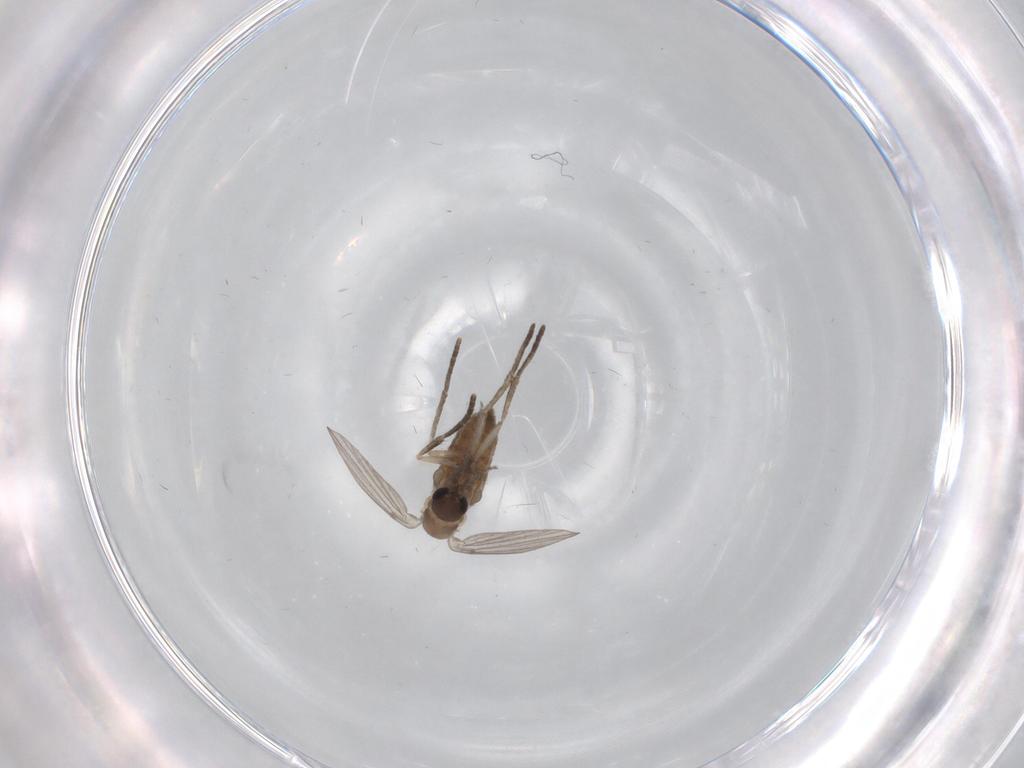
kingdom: Animalia
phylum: Arthropoda
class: Insecta
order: Diptera
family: Psychodidae
